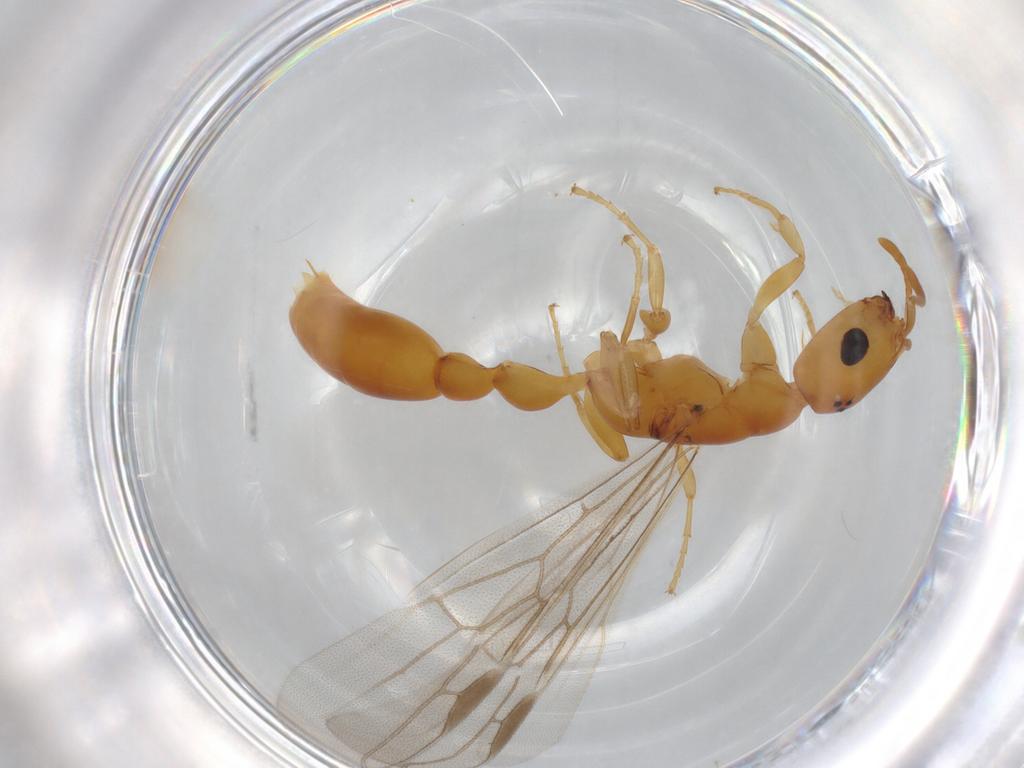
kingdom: Animalia
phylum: Arthropoda
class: Insecta
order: Hymenoptera
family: Formicidae
